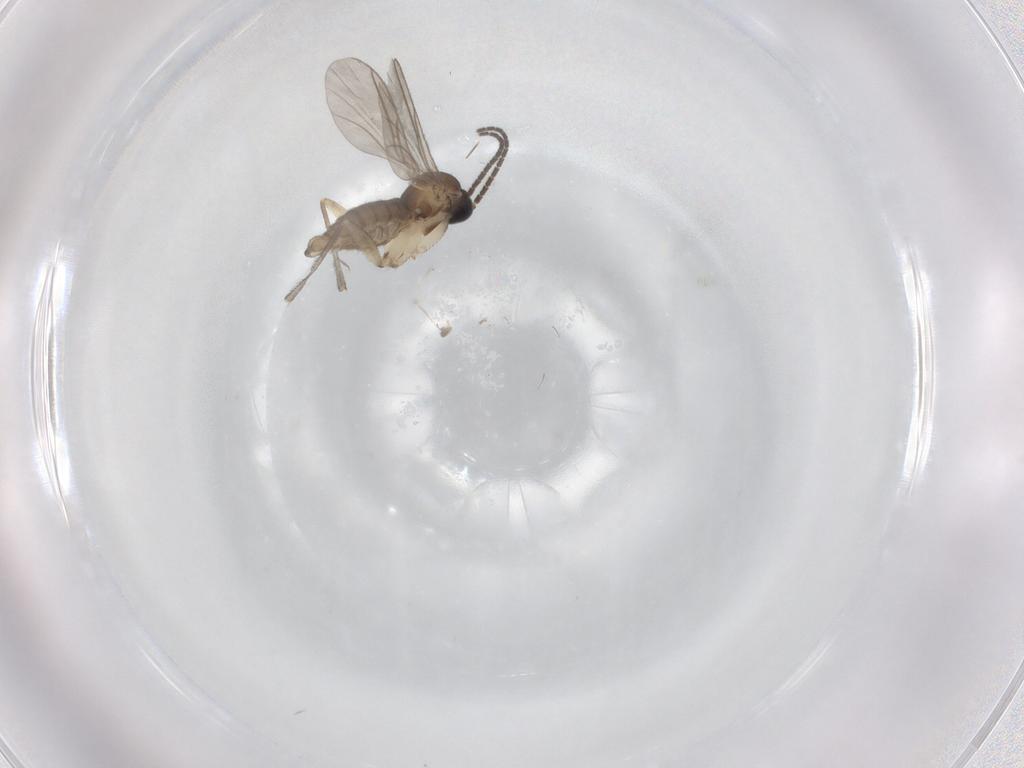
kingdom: Animalia
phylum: Arthropoda
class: Insecta
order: Diptera
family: Sciaridae
